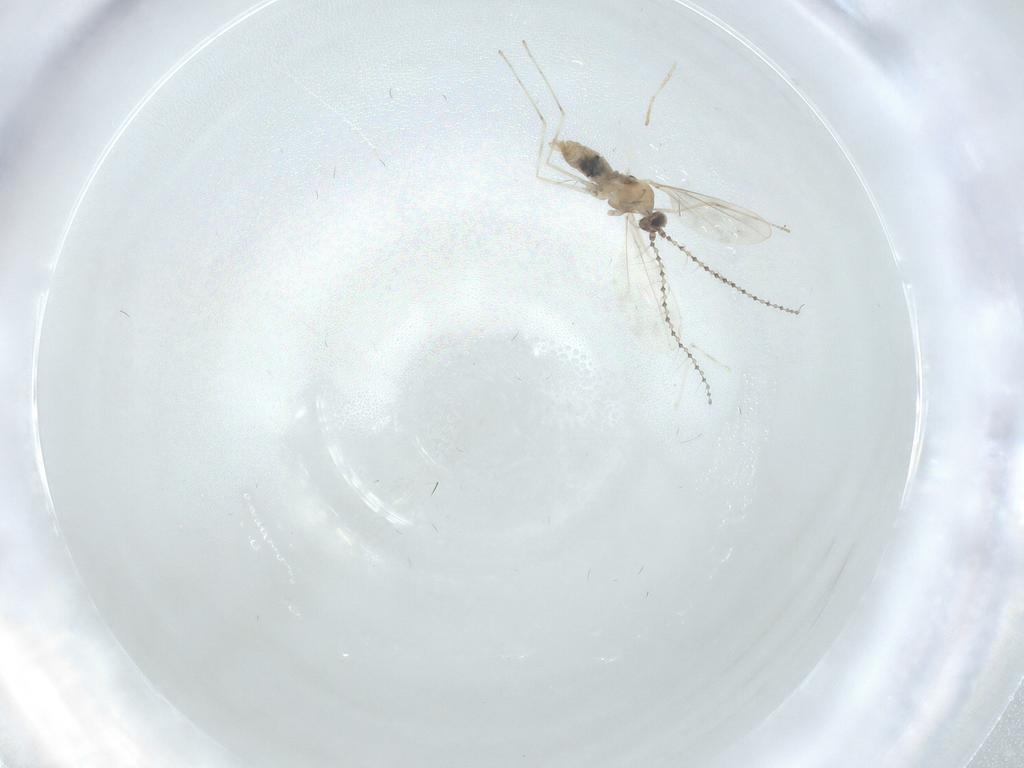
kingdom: Animalia
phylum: Arthropoda
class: Insecta
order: Diptera
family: Cecidomyiidae
